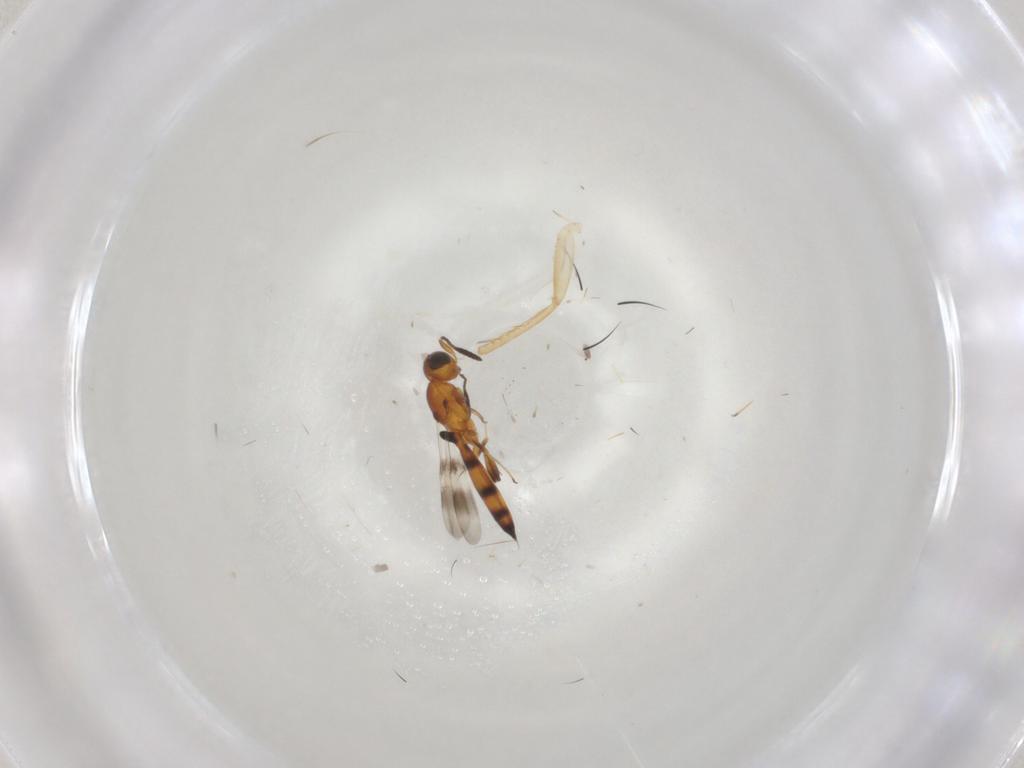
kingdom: Animalia
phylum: Arthropoda
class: Insecta
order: Hymenoptera
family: Scelionidae
